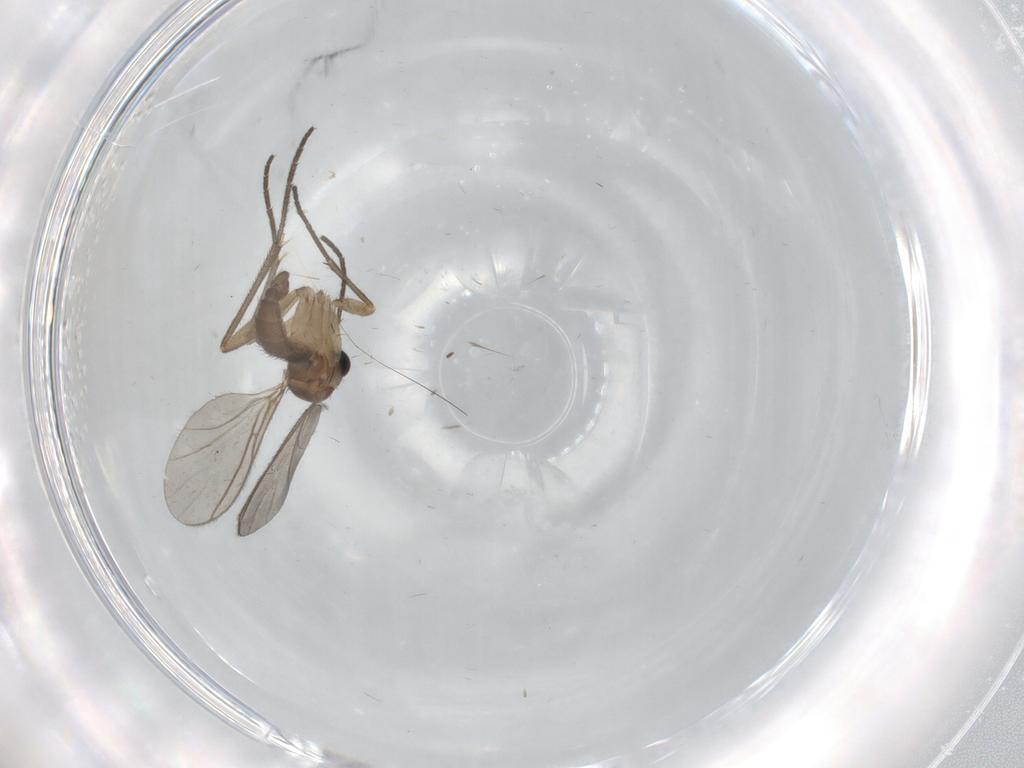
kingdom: Animalia
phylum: Arthropoda
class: Insecta
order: Diptera
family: Sciaridae
